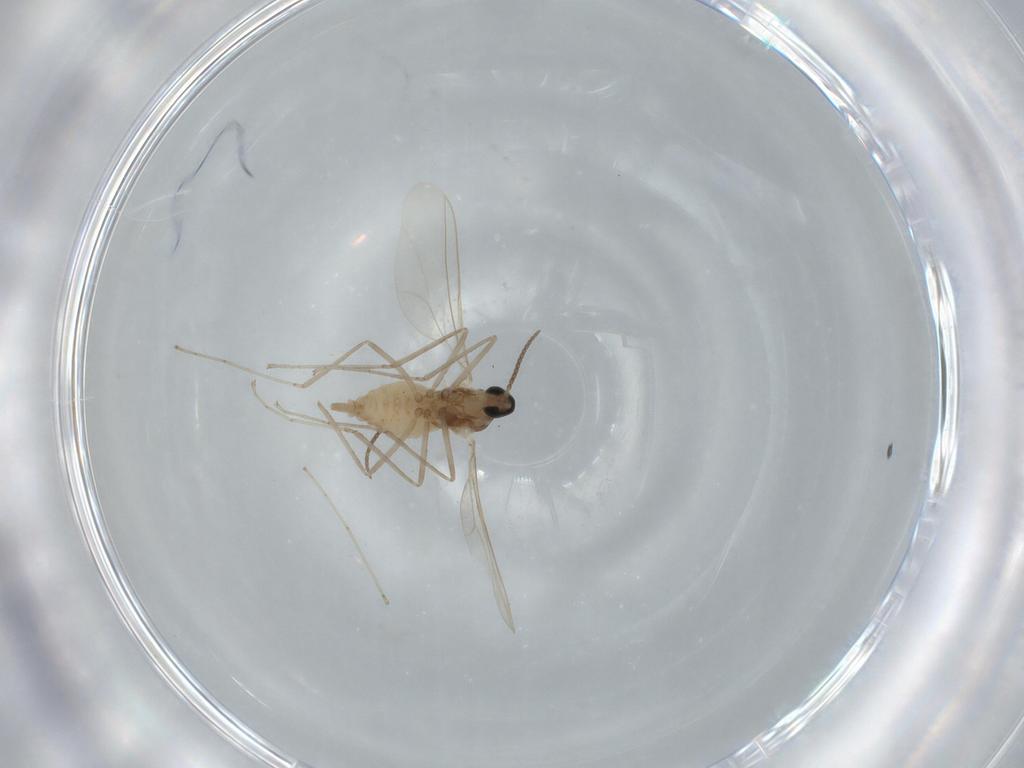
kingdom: Animalia
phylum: Arthropoda
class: Insecta
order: Diptera
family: Cecidomyiidae
